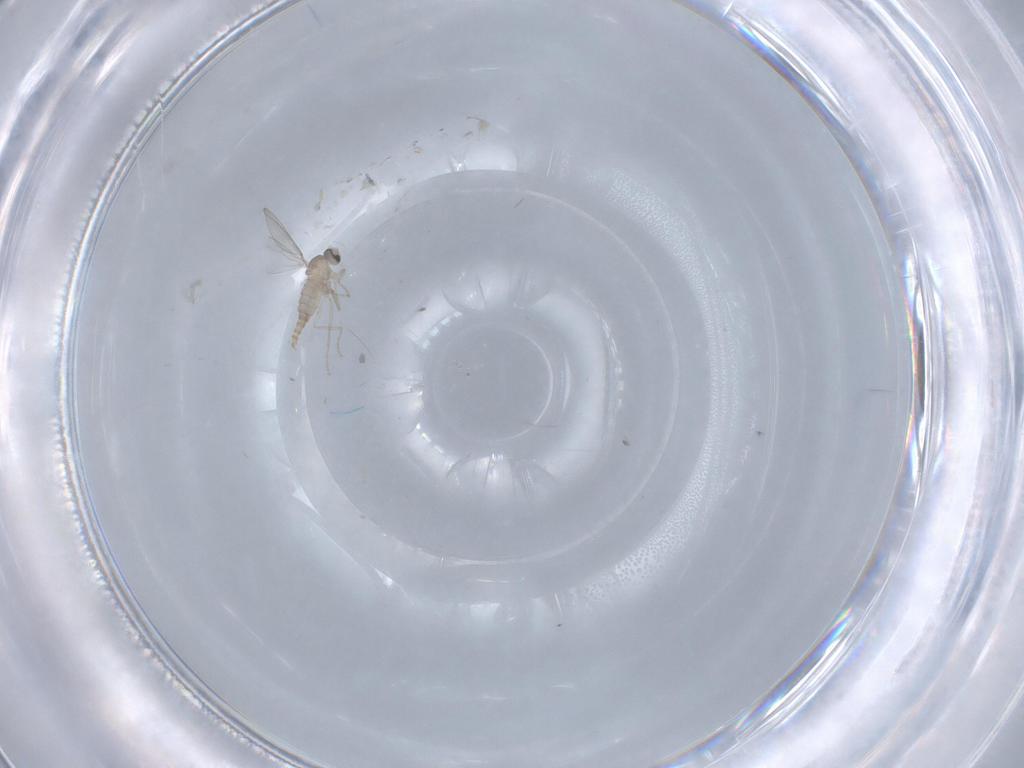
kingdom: Animalia
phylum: Arthropoda
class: Insecta
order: Diptera
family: Cecidomyiidae
